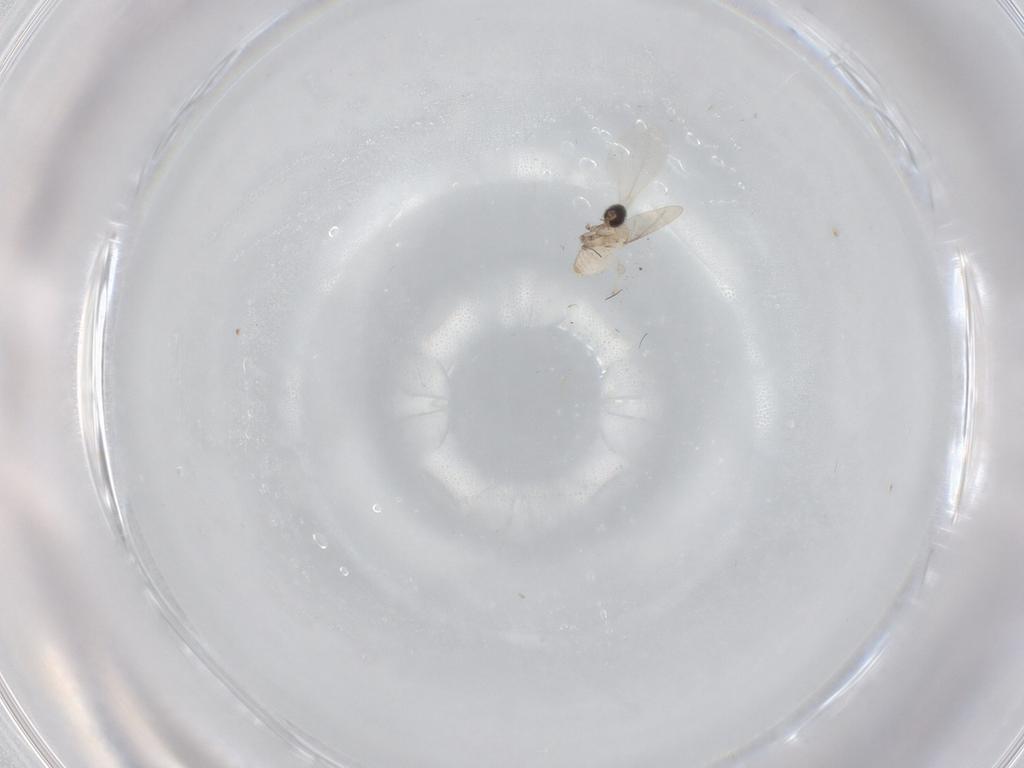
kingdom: Animalia
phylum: Arthropoda
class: Insecta
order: Diptera
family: Cecidomyiidae
